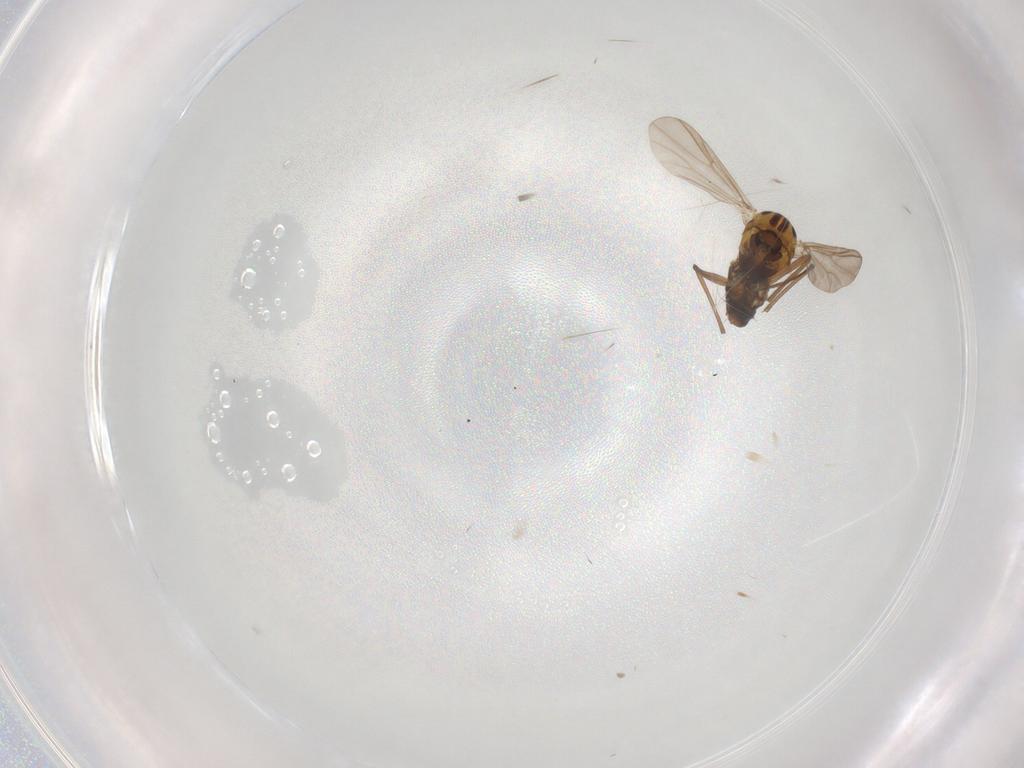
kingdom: Animalia
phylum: Arthropoda
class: Insecta
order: Diptera
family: Chironomidae
